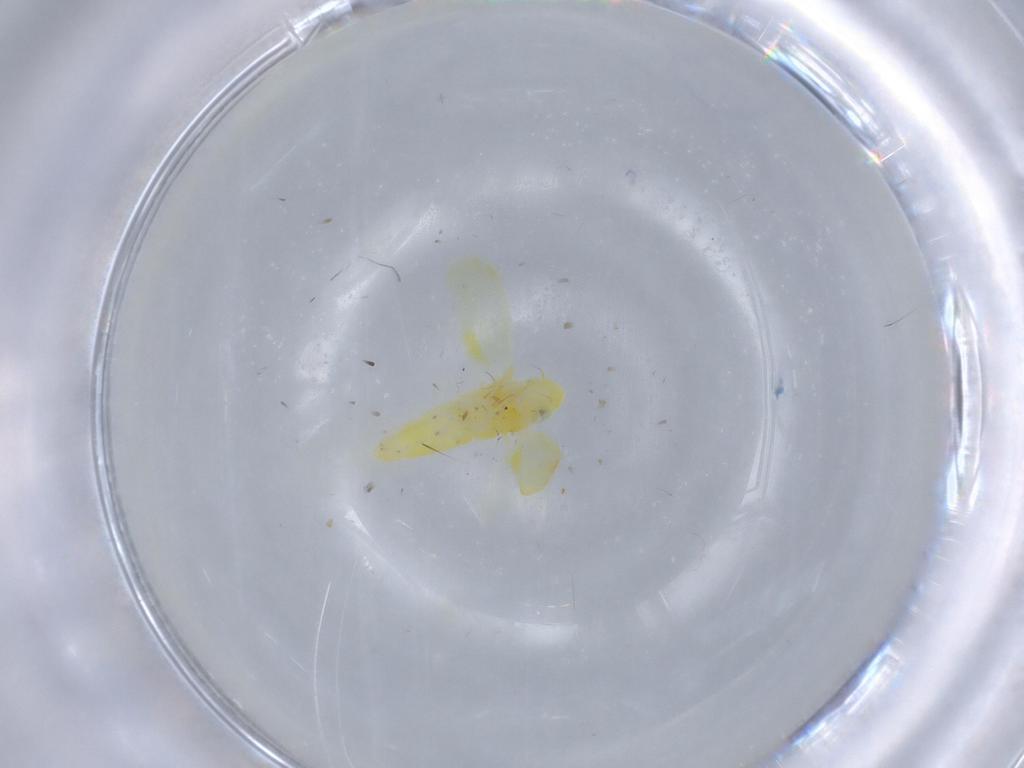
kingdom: Animalia
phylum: Arthropoda
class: Insecta
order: Hemiptera
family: Cicadellidae
